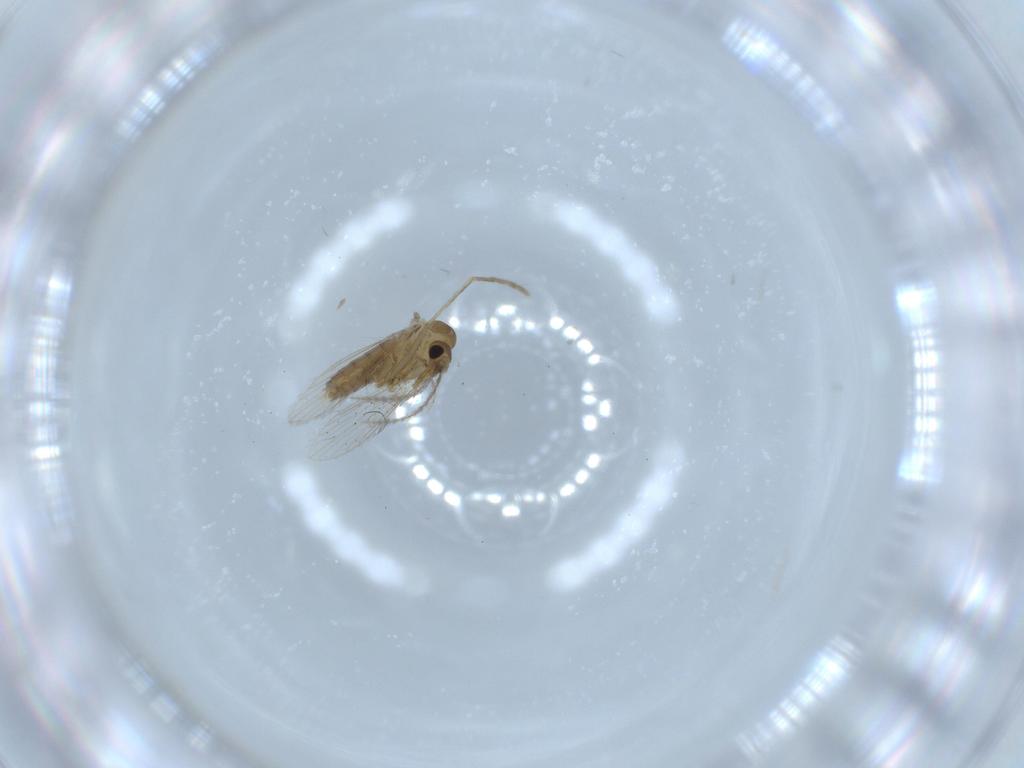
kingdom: Animalia
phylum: Arthropoda
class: Insecta
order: Diptera
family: Psychodidae
